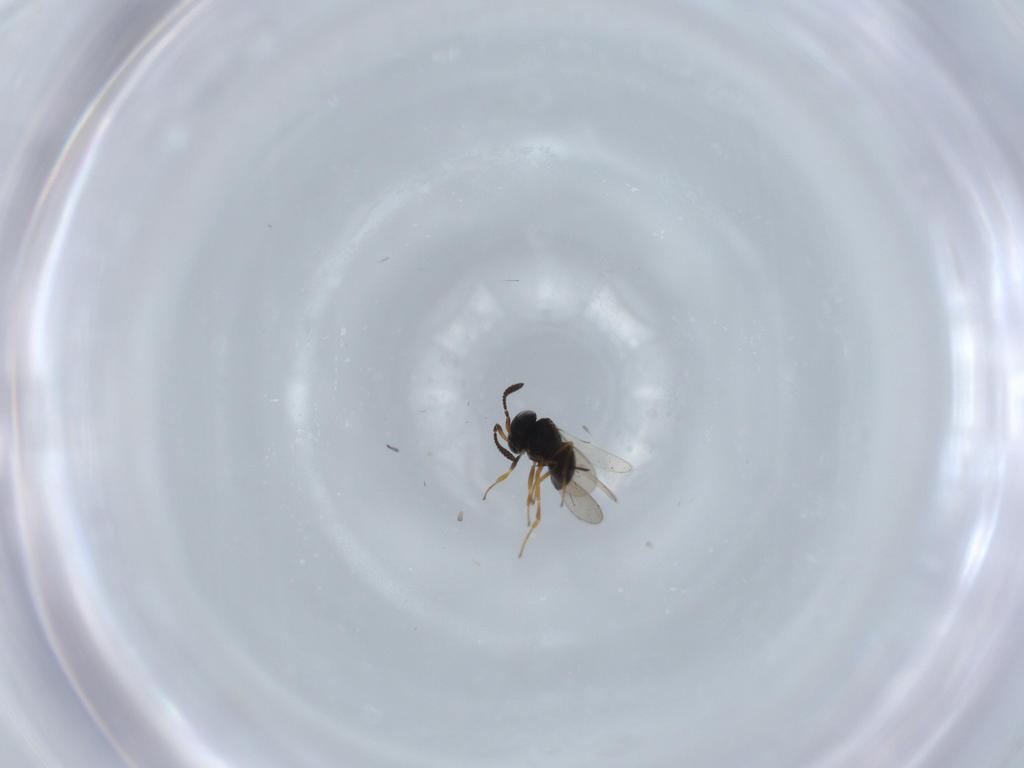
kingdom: Animalia
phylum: Arthropoda
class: Insecta
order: Hymenoptera
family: Scelionidae
